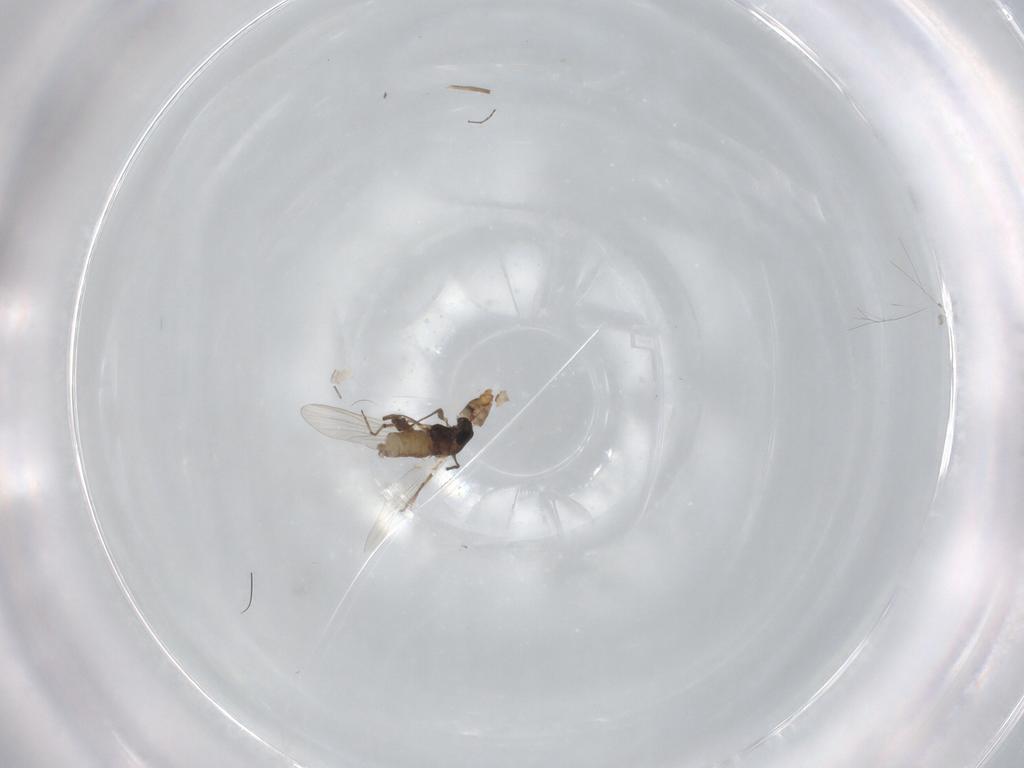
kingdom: Animalia
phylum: Arthropoda
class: Insecta
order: Diptera
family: Chironomidae
